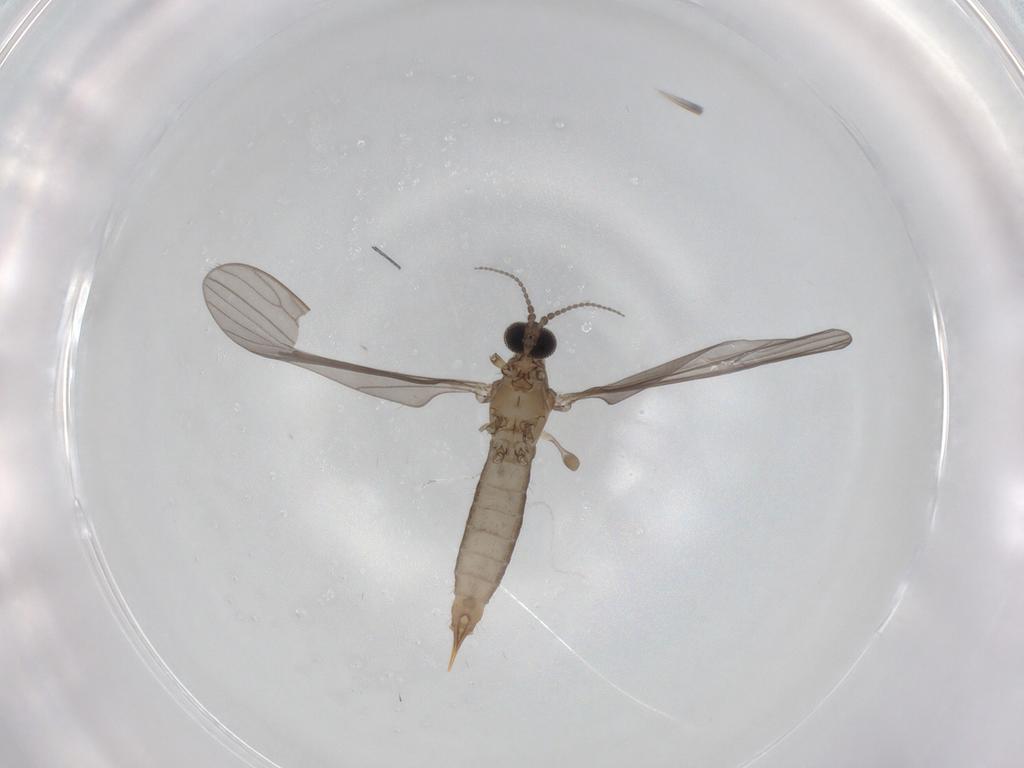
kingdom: Animalia
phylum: Arthropoda
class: Insecta
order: Diptera
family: Limoniidae
